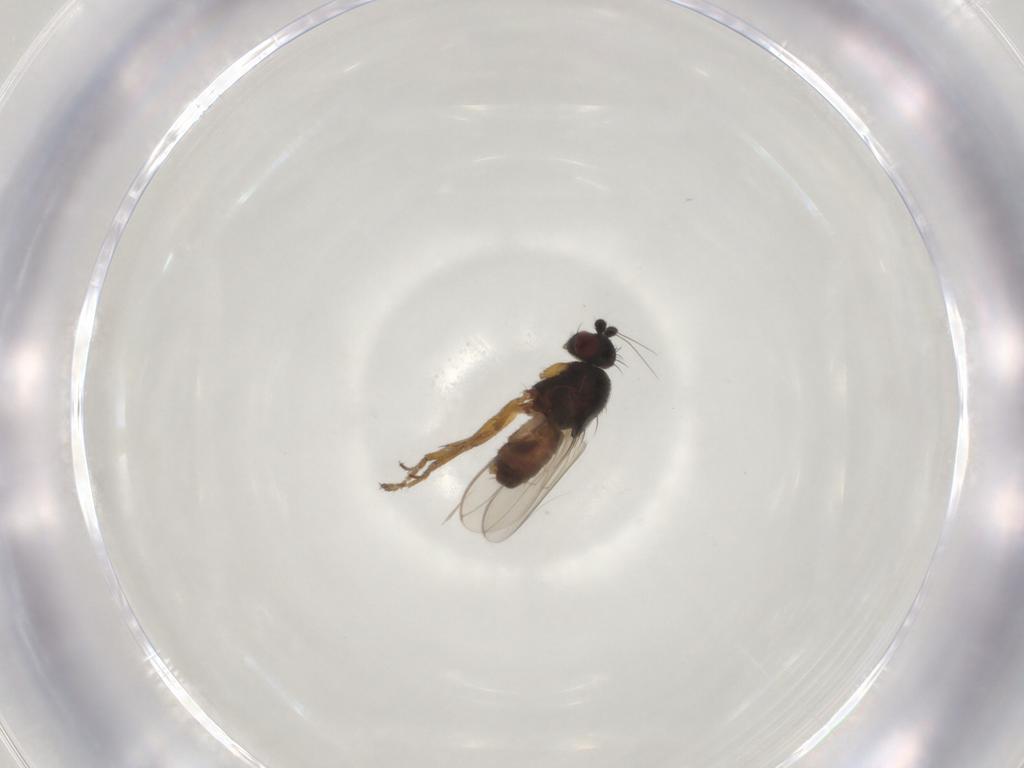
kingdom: Animalia
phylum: Arthropoda
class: Insecta
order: Diptera
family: Sphaeroceridae
